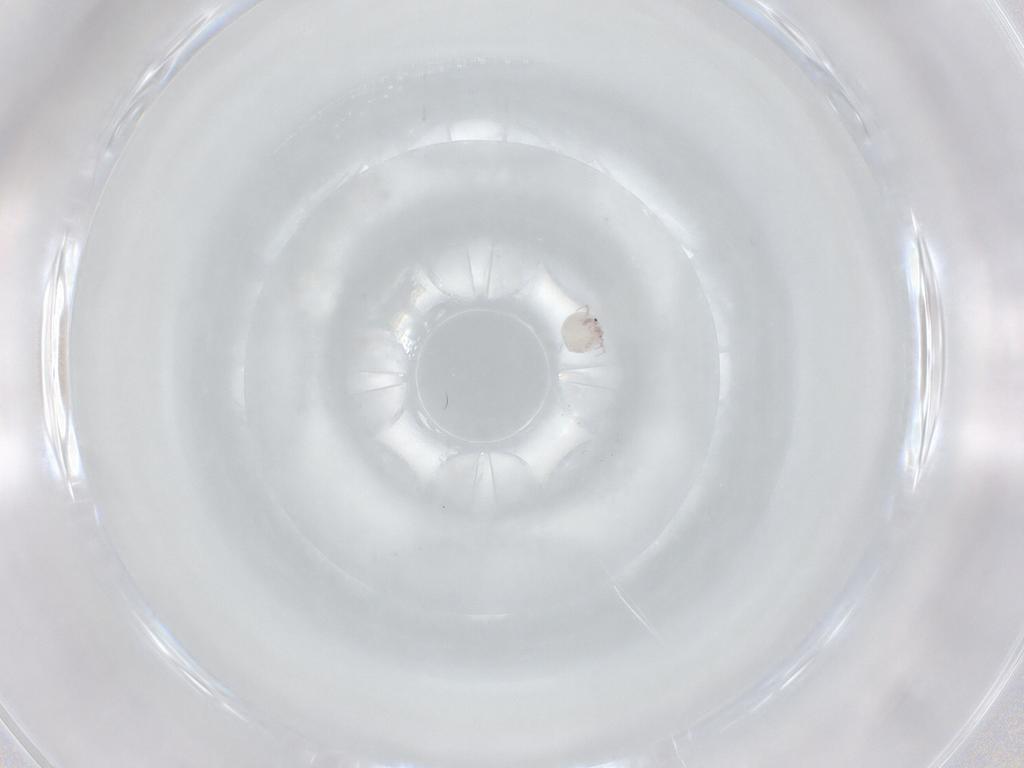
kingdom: Animalia
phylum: Arthropoda
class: Arachnida
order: Trombidiformes
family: Arrenuridae
